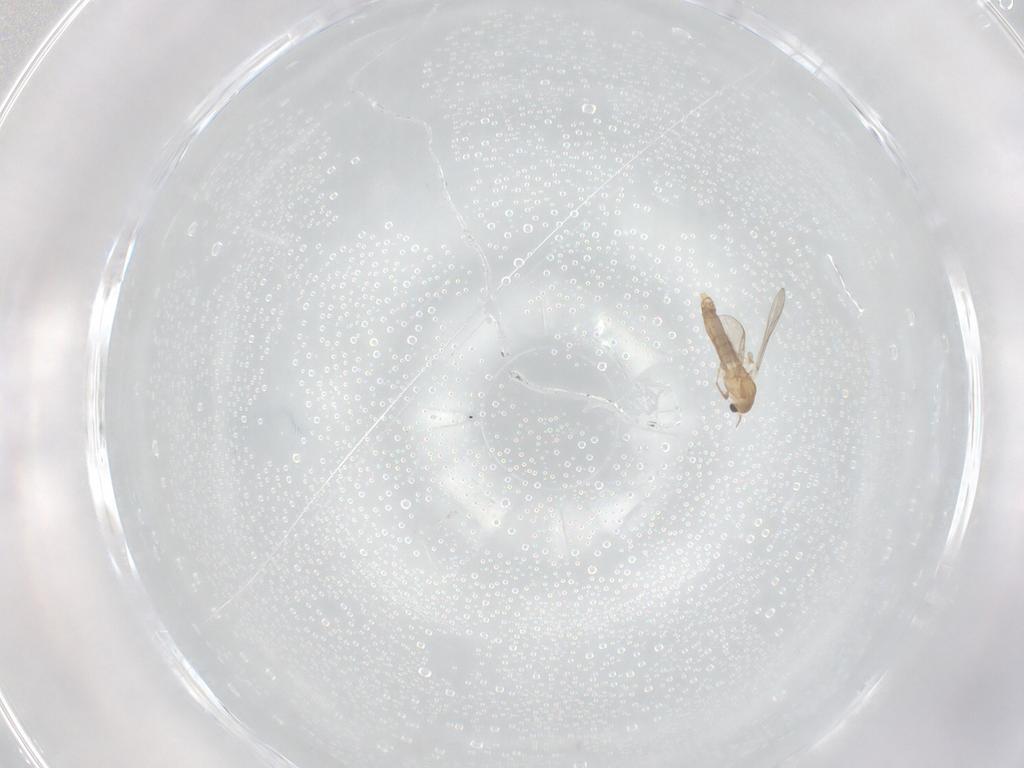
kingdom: Animalia
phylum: Arthropoda
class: Insecta
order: Diptera
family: Chironomidae
